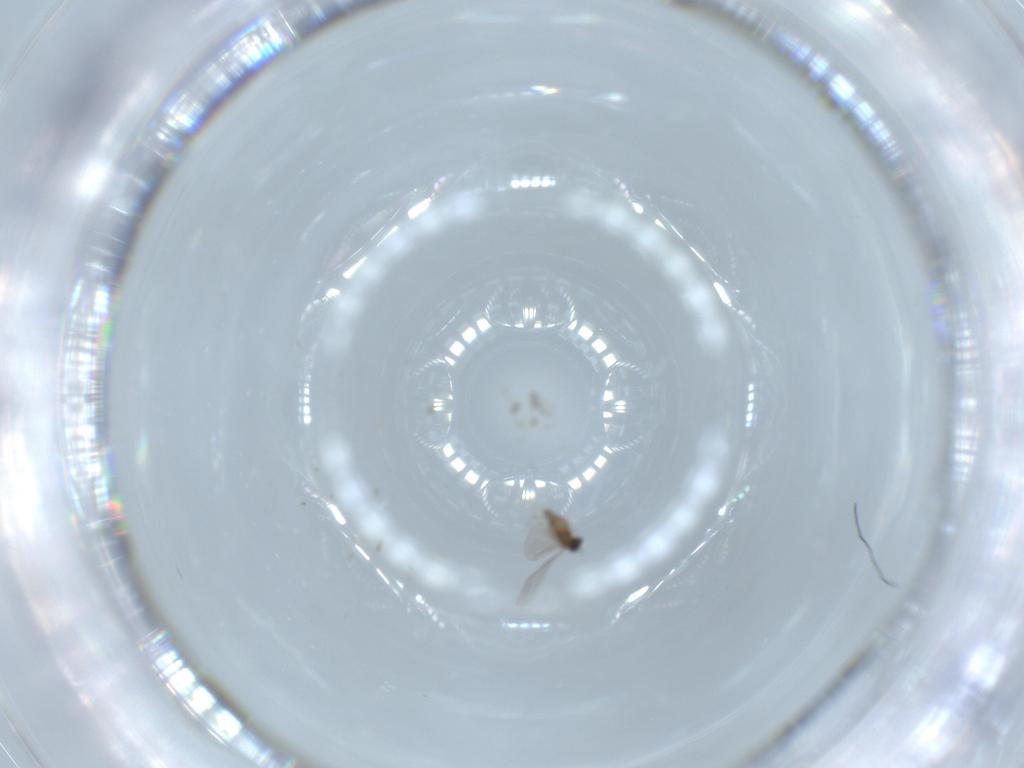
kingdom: Animalia
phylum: Arthropoda
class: Insecta
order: Diptera
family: Cecidomyiidae
